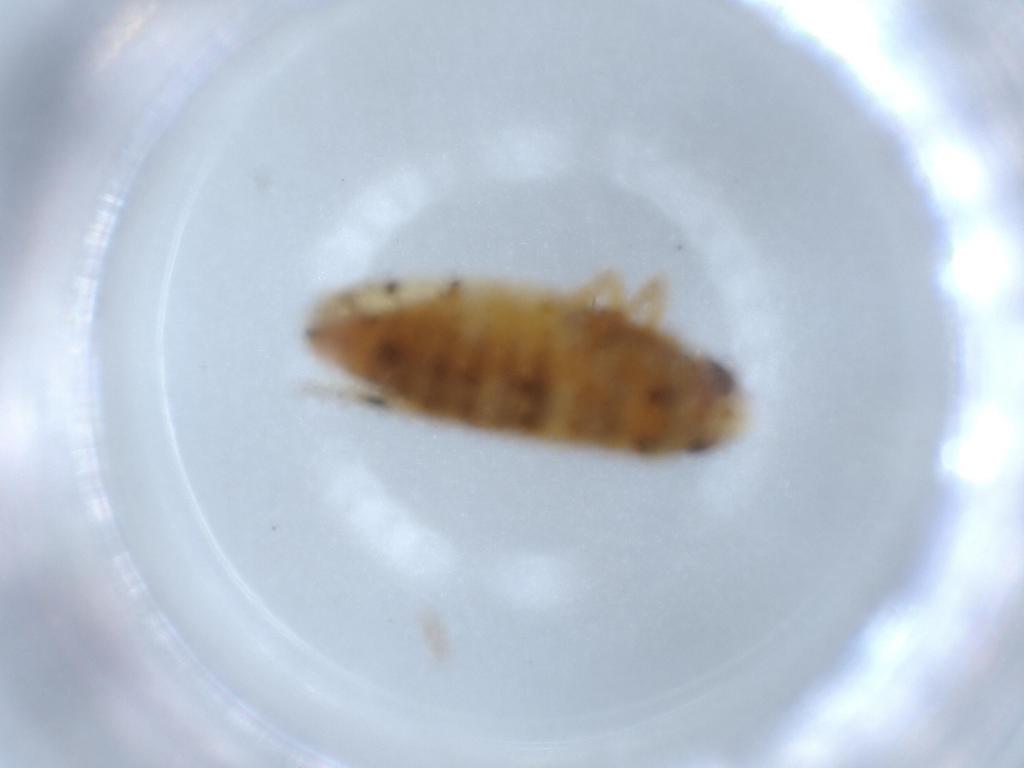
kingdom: Animalia
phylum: Arthropoda
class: Insecta
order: Hemiptera
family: Cicadellidae
